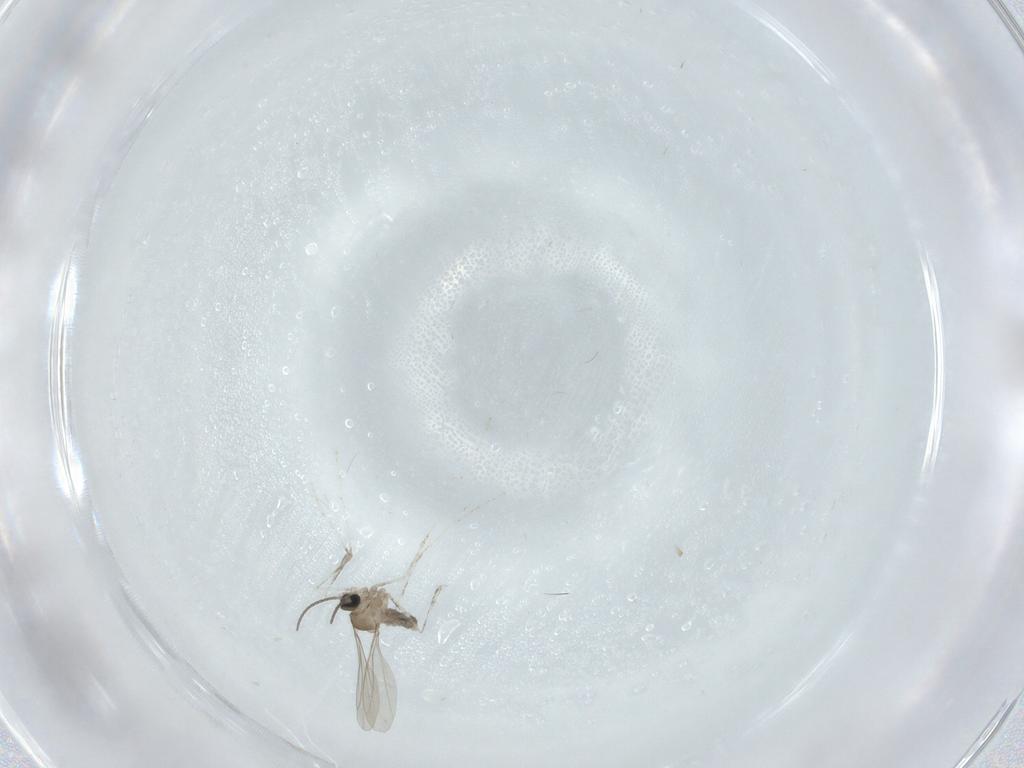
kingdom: Animalia
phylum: Arthropoda
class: Insecta
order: Diptera
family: Cecidomyiidae
